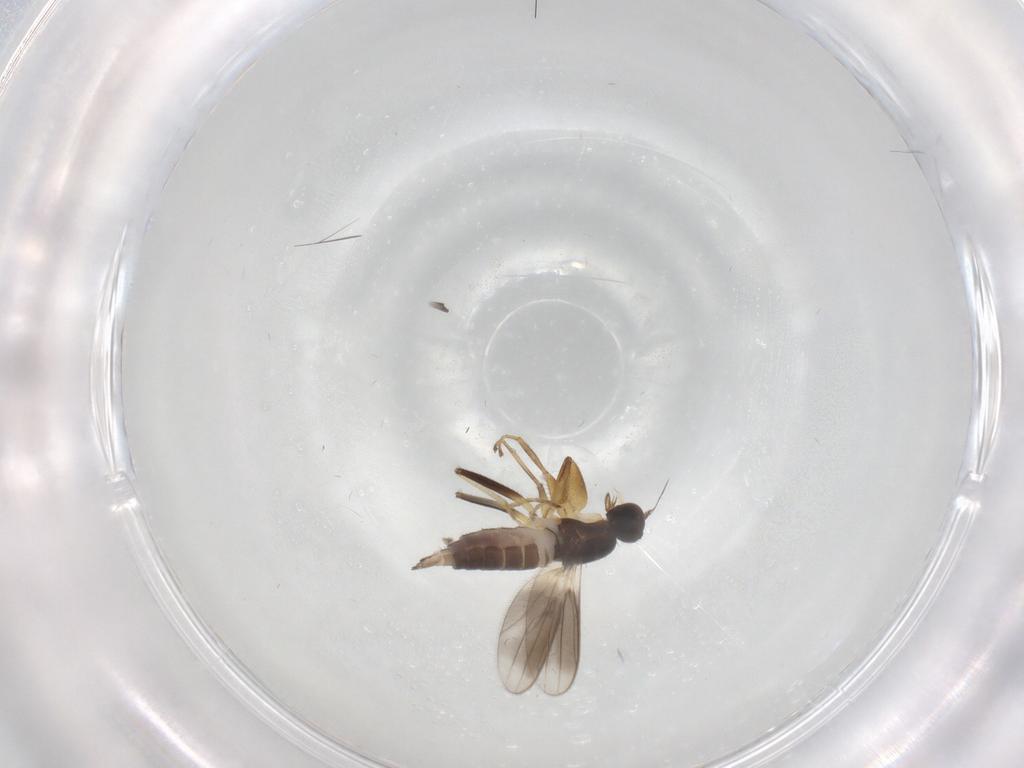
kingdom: Animalia
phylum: Arthropoda
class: Insecta
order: Diptera
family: Hybotidae
